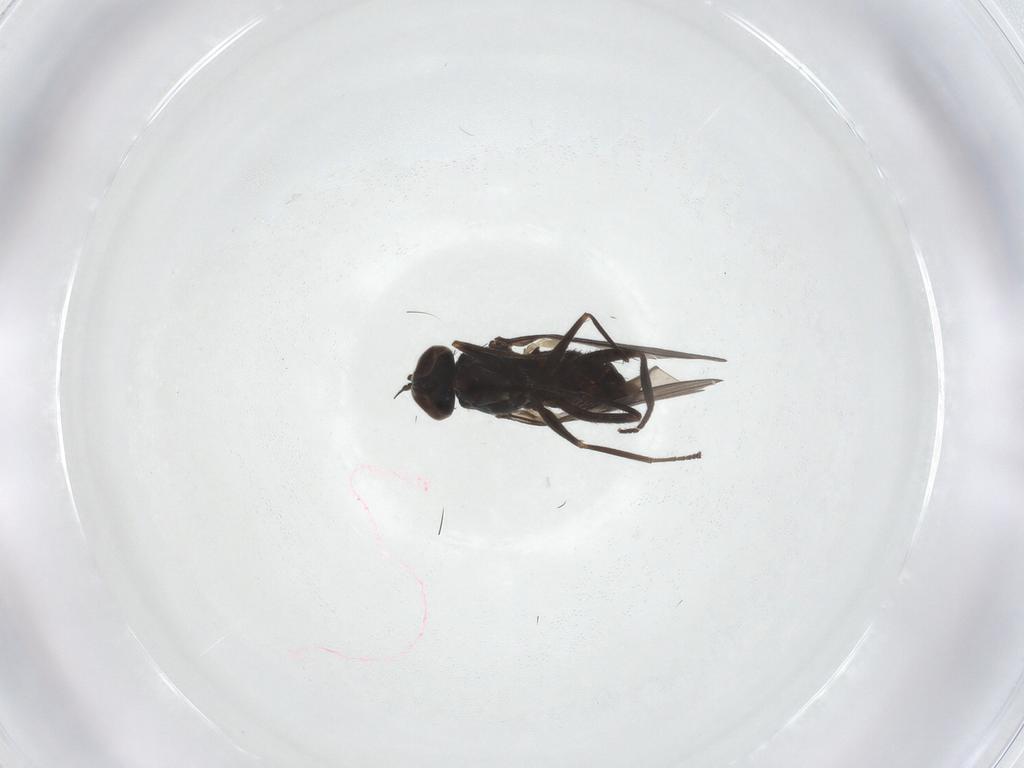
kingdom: Animalia
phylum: Arthropoda
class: Insecta
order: Diptera
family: Dolichopodidae
